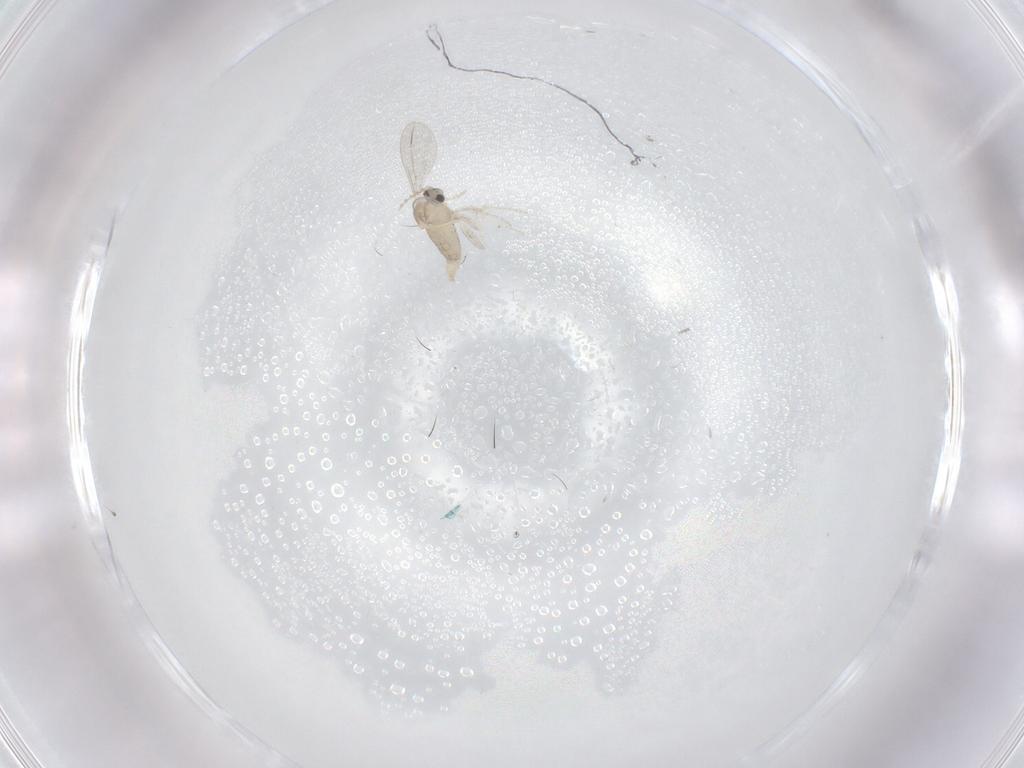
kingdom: Animalia
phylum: Arthropoda
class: Insecta
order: Diptera
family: Cecidomyiidae
